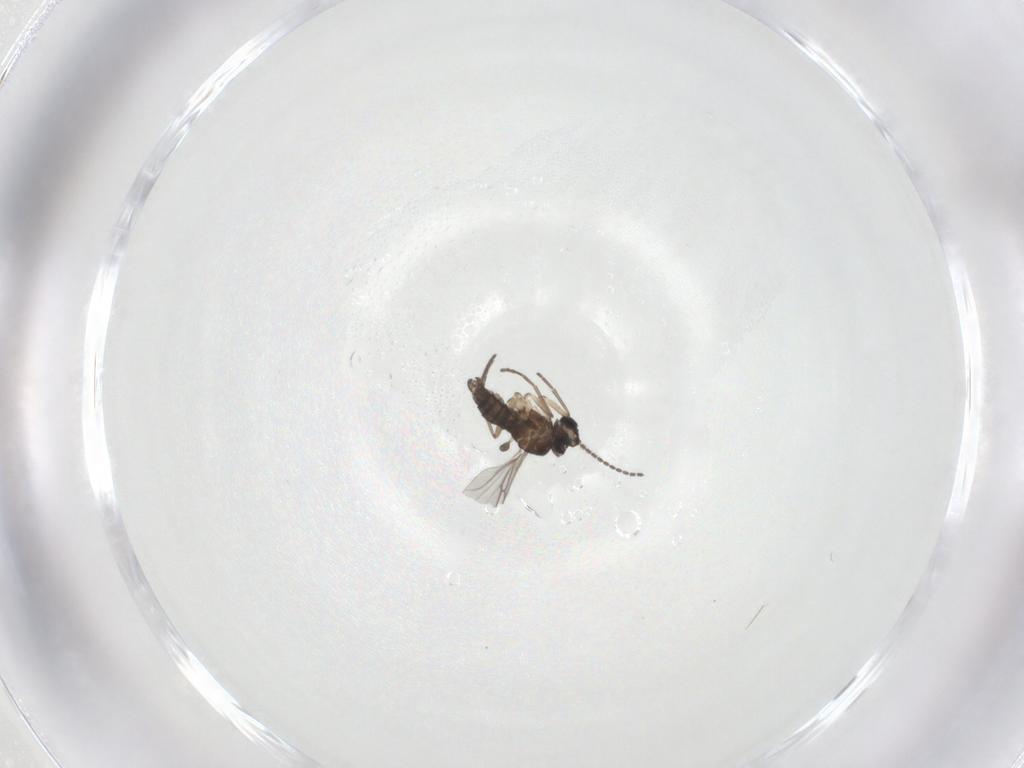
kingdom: Animalia
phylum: Arthropoda
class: Insecta
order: Diptera
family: Sciaridae
